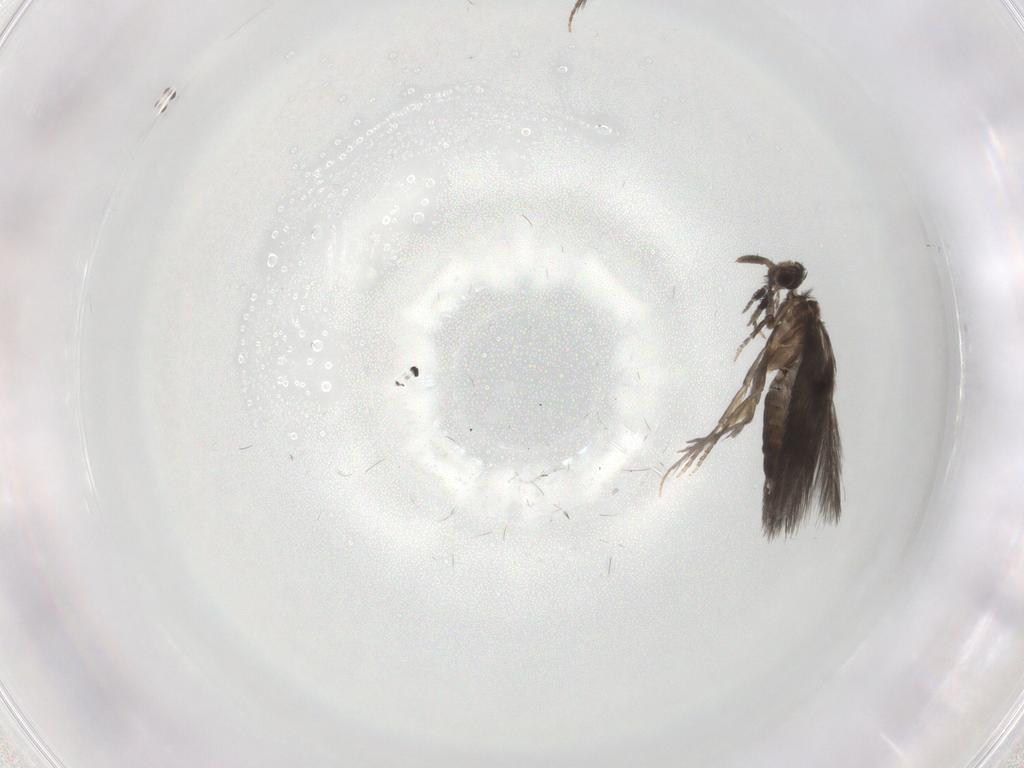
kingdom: Animalia
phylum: Arthropoda
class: Insecta
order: Trichoptera
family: Hydroptilidae
